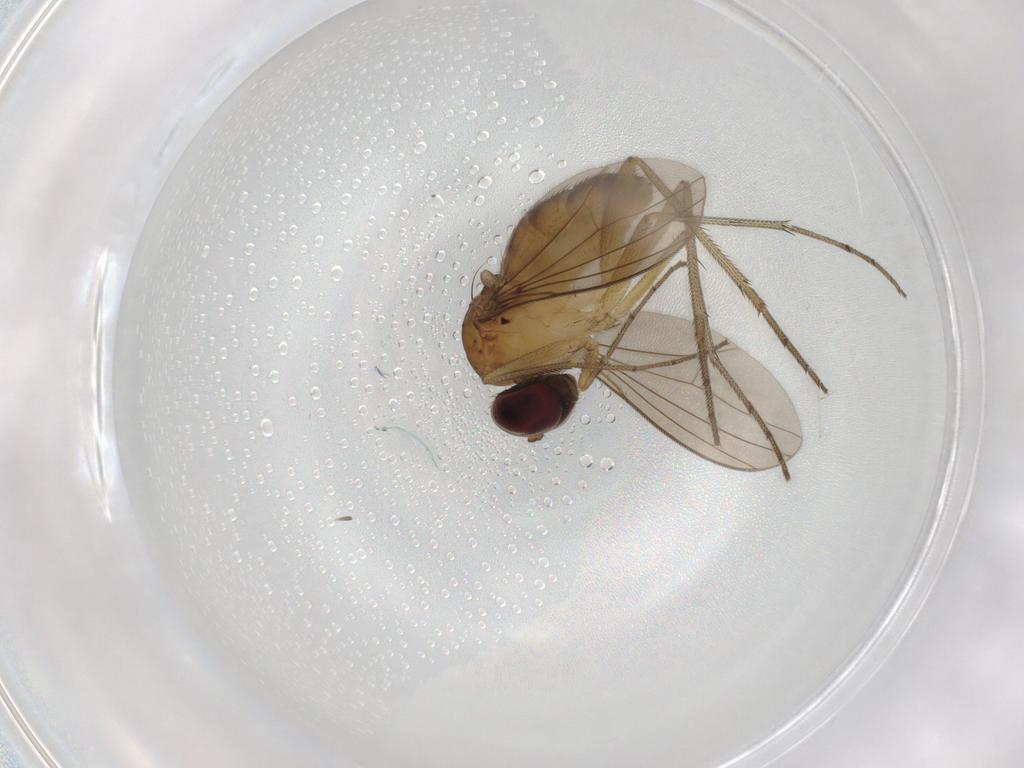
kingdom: Animalia
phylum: Arthropoda
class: Insecta
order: Diptera
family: Dolichopodidae
